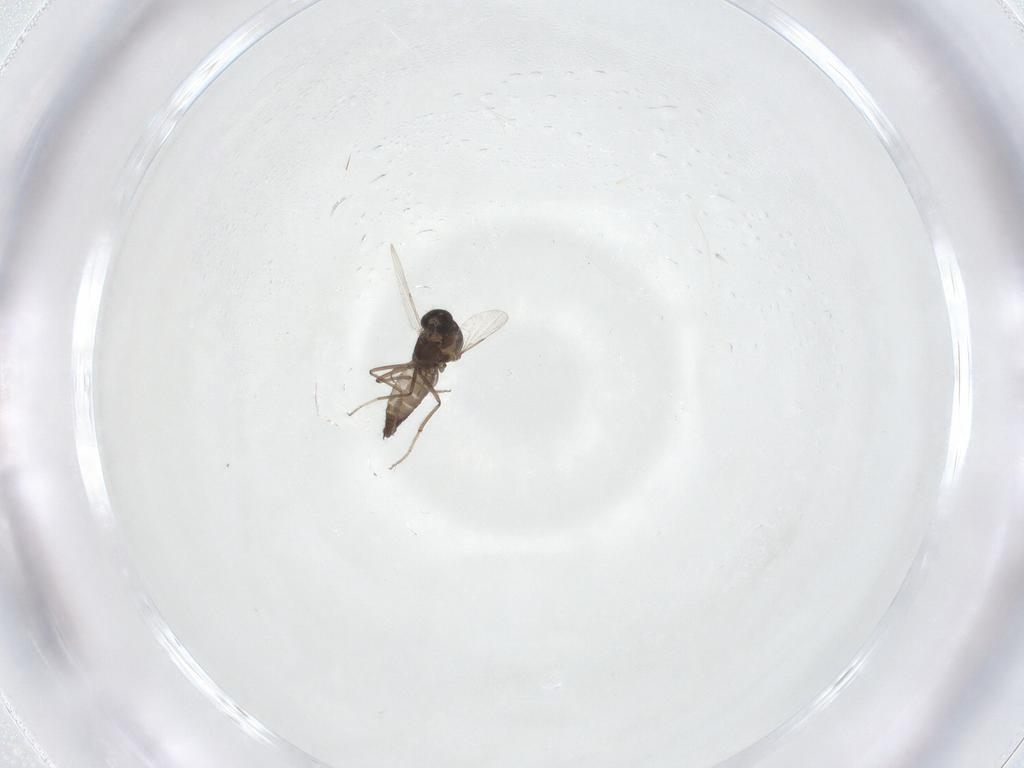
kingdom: Animalia
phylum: Arthropoda
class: Insecta
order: Diptera
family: Ceratopogonidae
